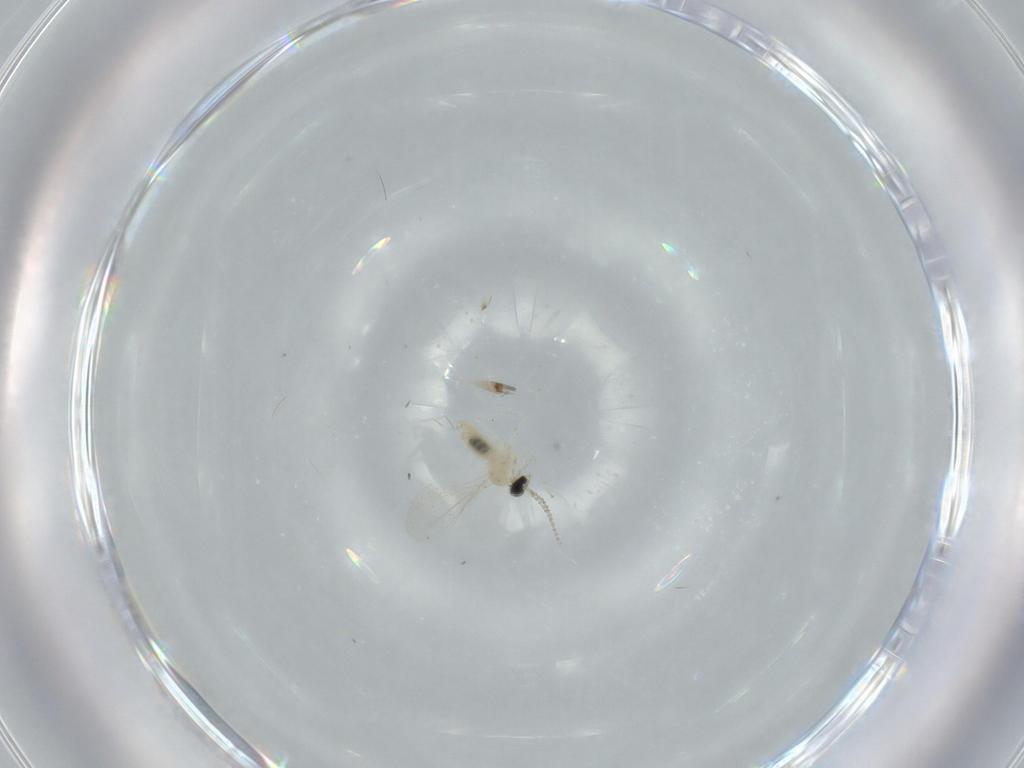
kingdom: Animalia
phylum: Arthropoda
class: Insecta
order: Diptera
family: Cecidomyiidae
